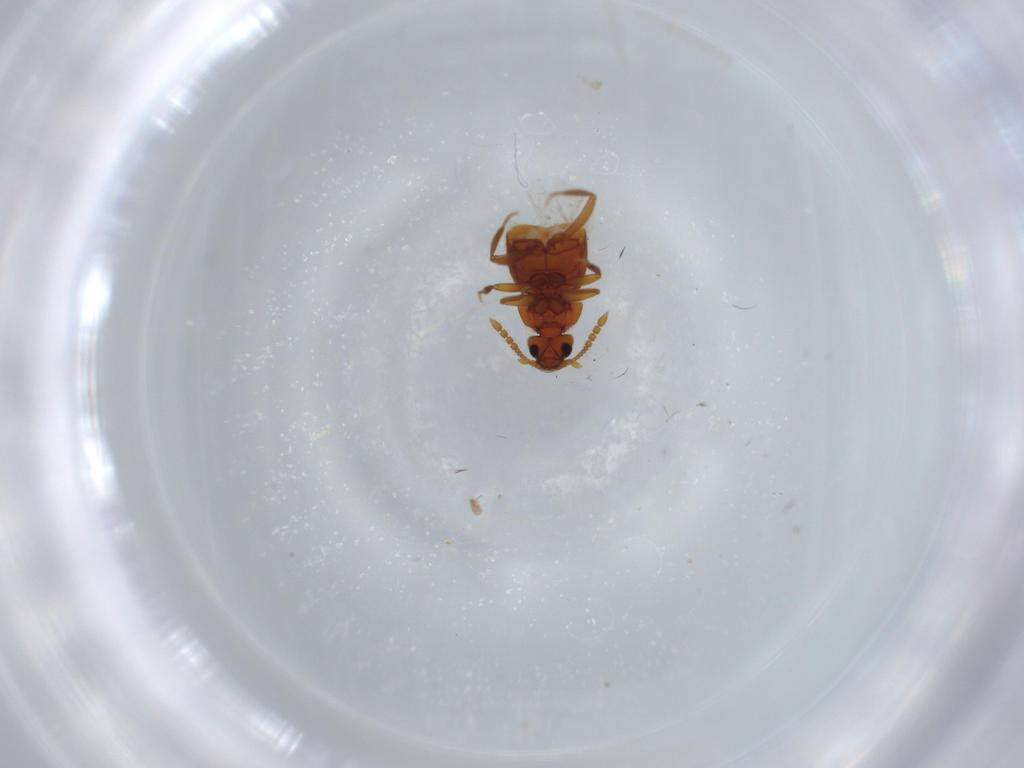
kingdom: Animalia
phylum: Arthropoda
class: Insecta
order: Coleoptera
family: Staphylinidae
